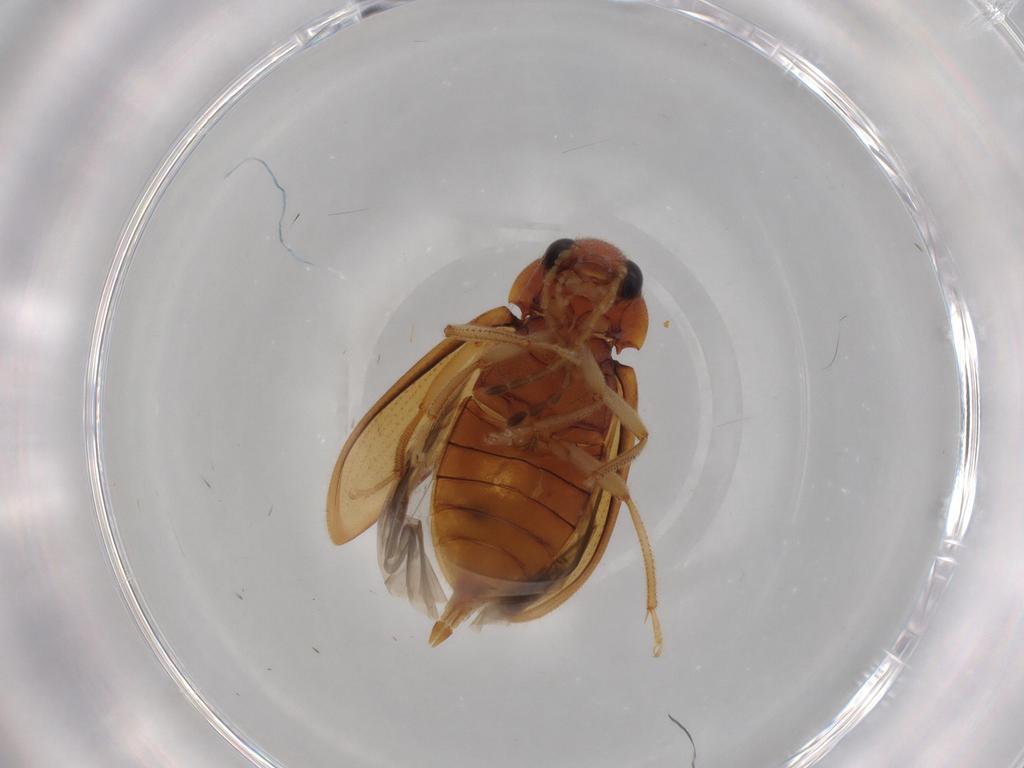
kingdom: Animalia
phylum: Arthropoda
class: Insecta
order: Coleoptera
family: Ptilodactylidae
